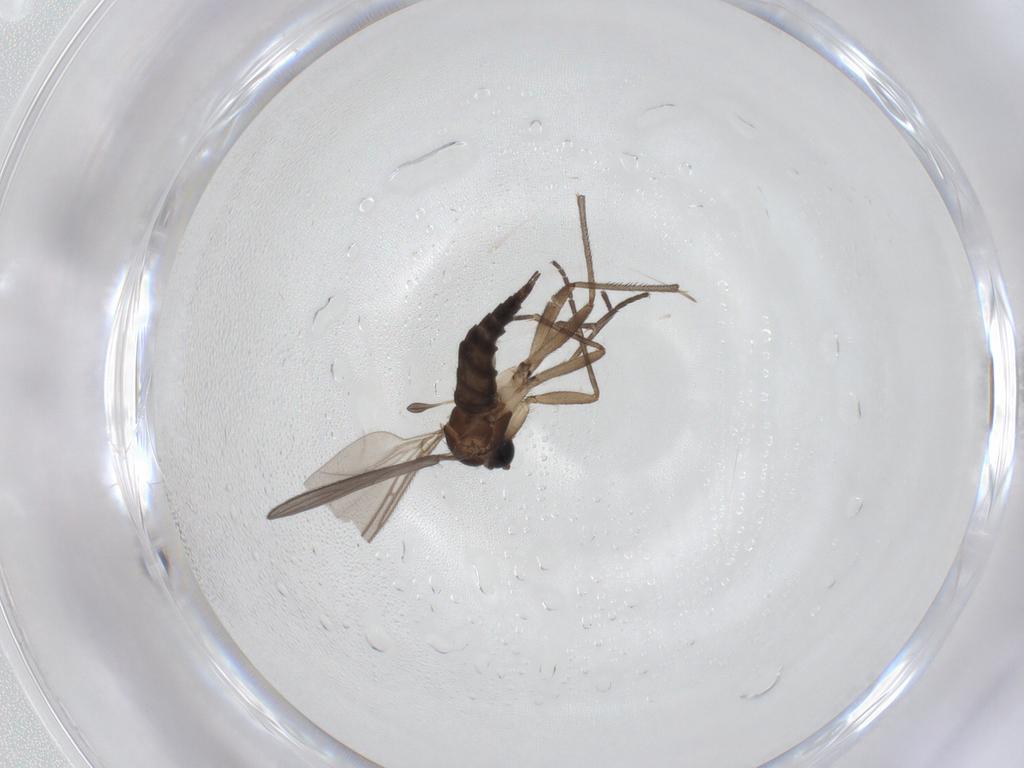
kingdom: Animalia
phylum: Arthropoda
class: Insecta
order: Diptera
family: Sciaridae
